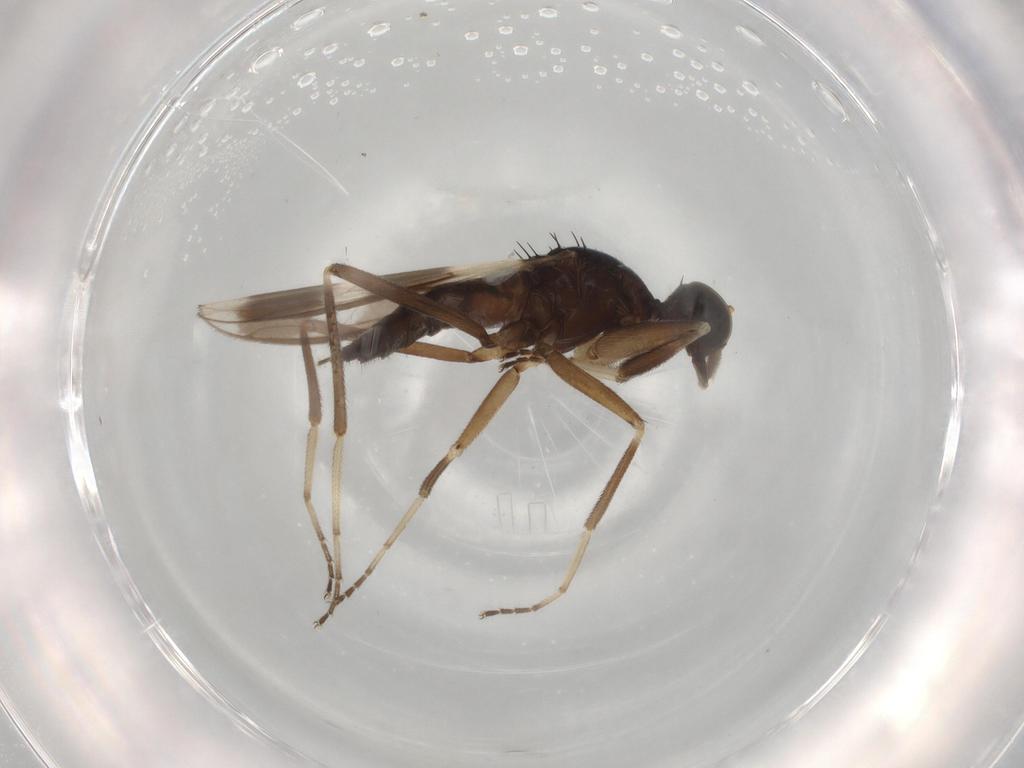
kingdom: Animalia
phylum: Arthropoda
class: Insecta
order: Diptera
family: Hybotidae
